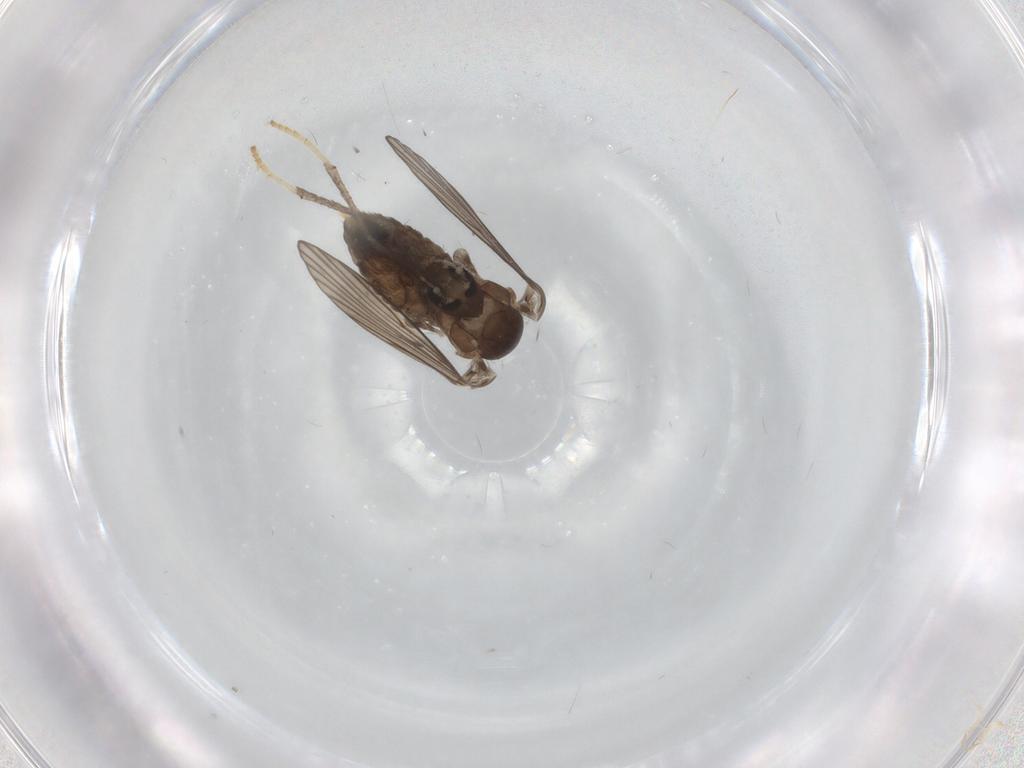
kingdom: Animalia
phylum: Arthropoda
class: Insecta
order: Diptera
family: Psychodidae
